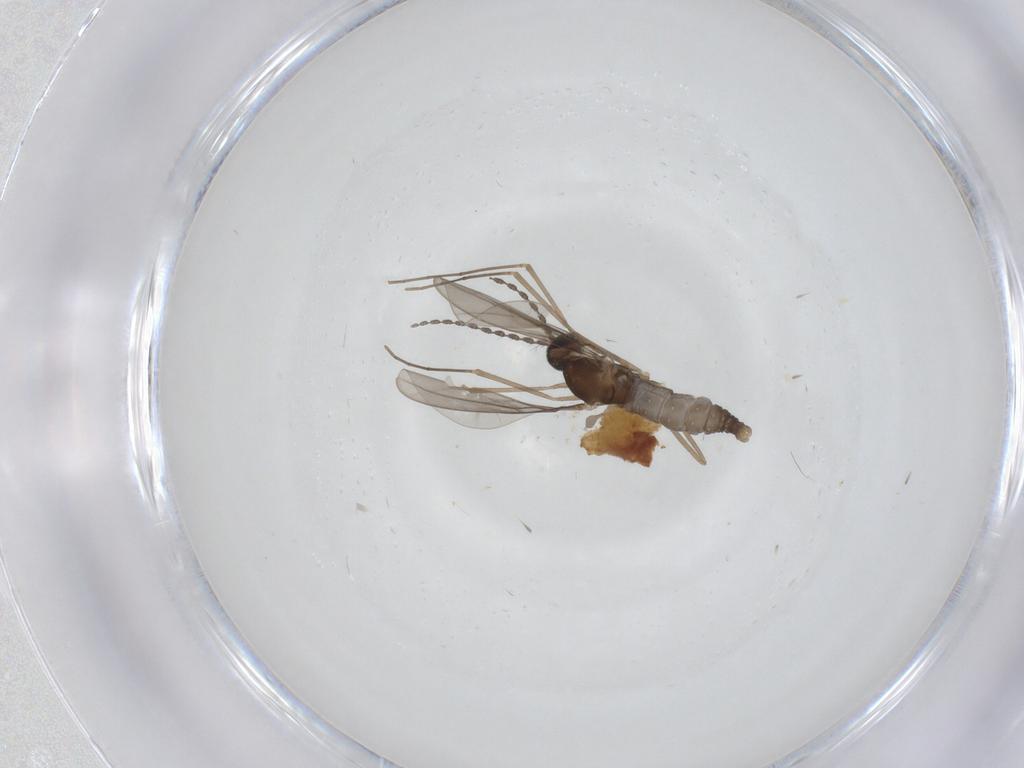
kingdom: Animalia
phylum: Arthropoda
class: Insecta
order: Diptera
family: Cecidomyiidae
